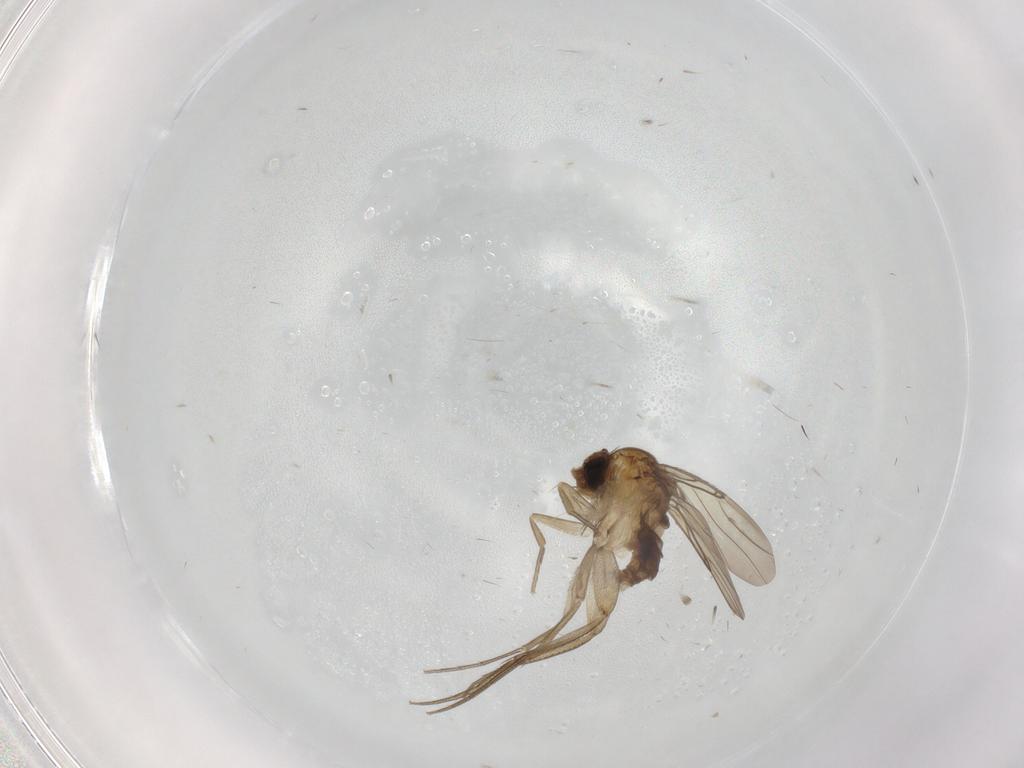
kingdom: Animalia
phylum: Arthropoda
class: Insecta
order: Diptera
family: Phoridae
